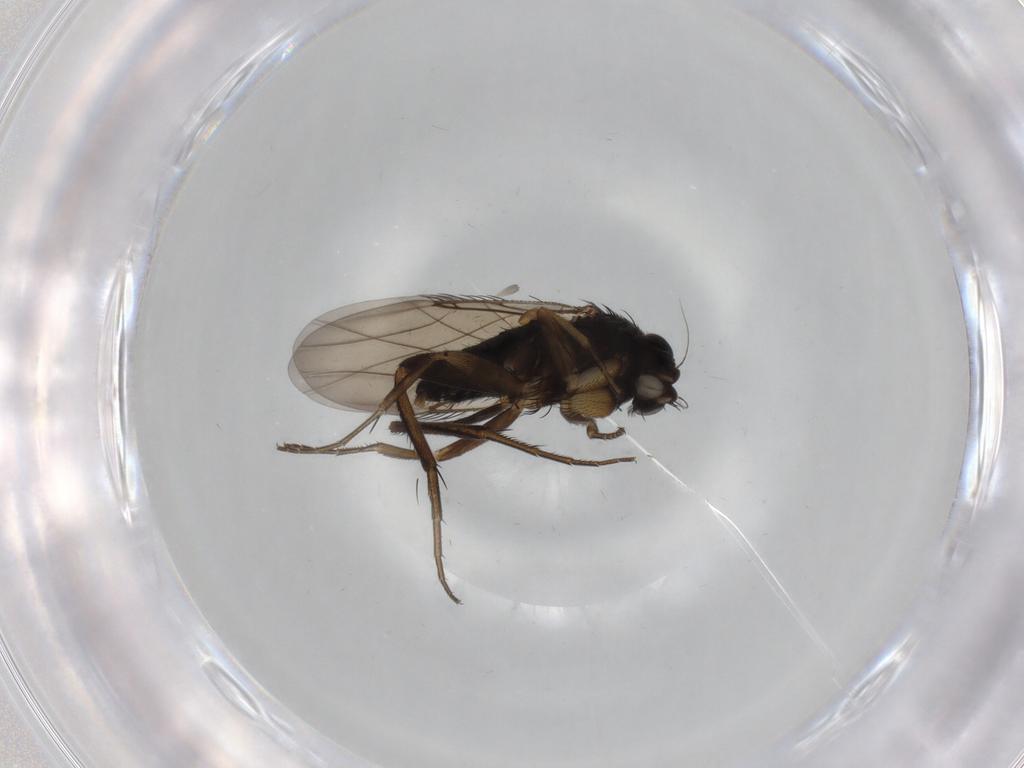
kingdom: Animalia
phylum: Arthropoda
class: Insecta
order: Diptera
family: Phoridae
